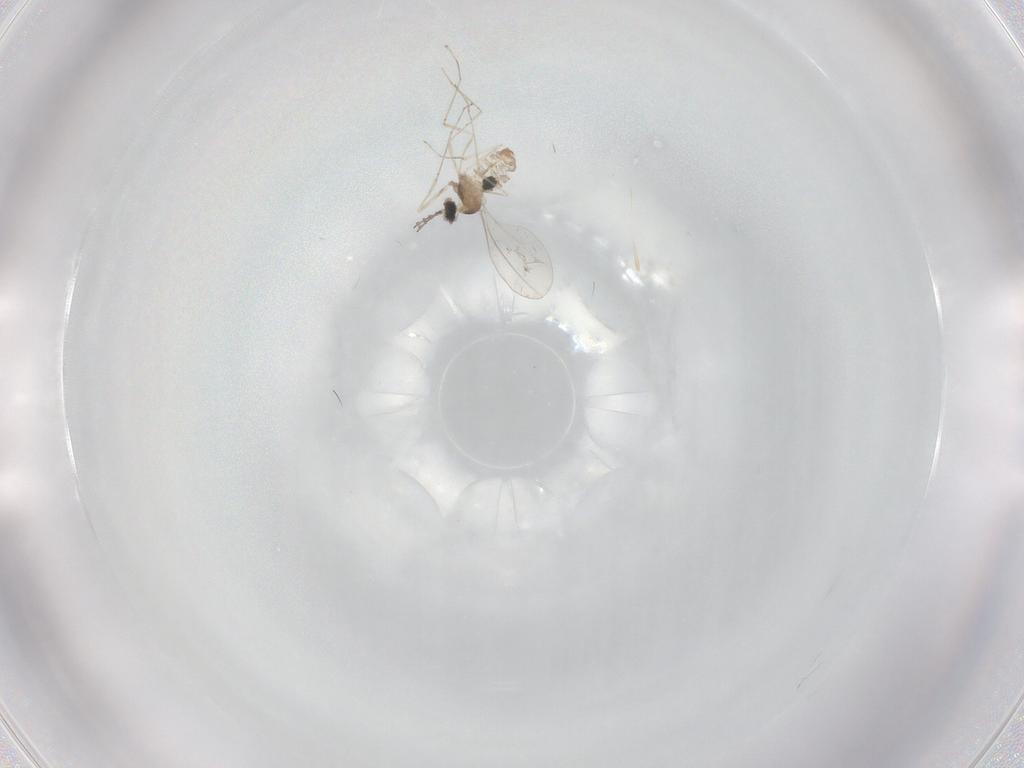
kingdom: Animalia
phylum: Arthropoda
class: Insecta
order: Diptera
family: Cecidomyiidae
